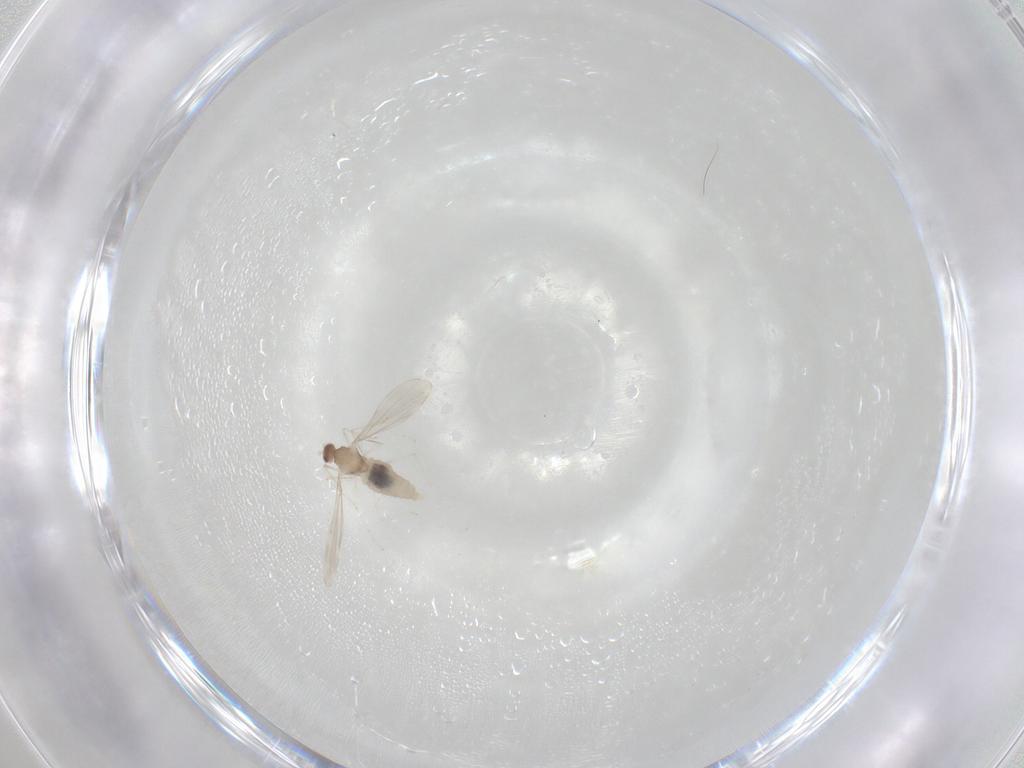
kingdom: Animalia
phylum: Arthropoda
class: Insecta
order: Diptera
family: Cecidomyiidae
